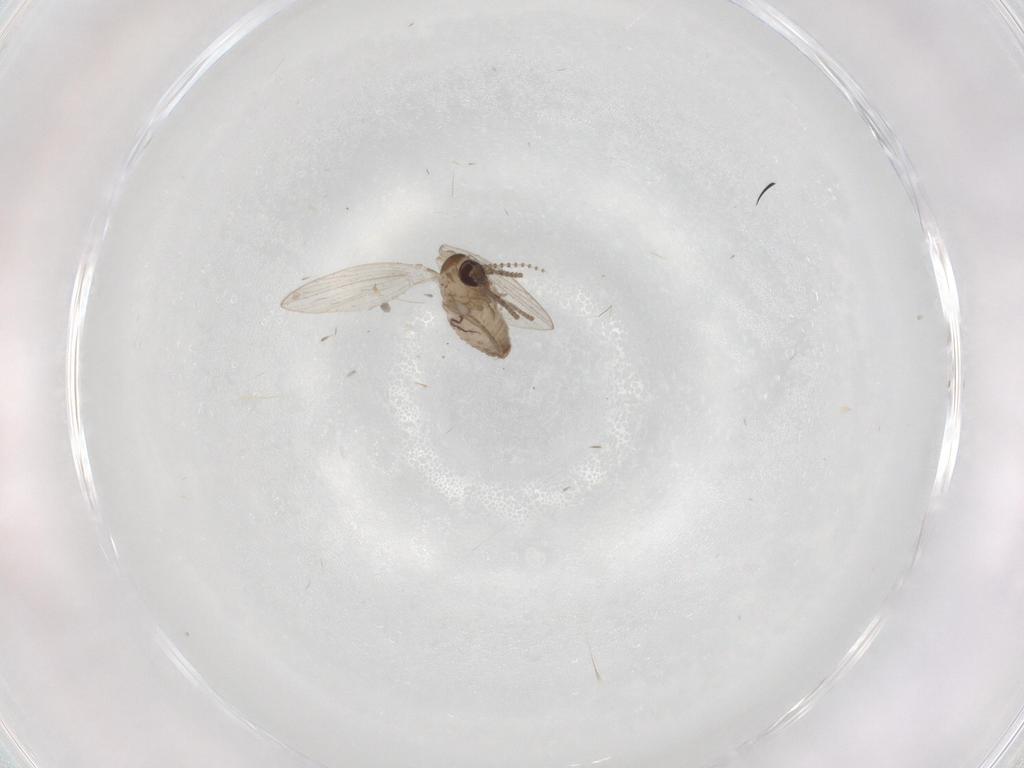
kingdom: Animalia
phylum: Arthropoda
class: Insecta
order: Diptera
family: Psychodidae
